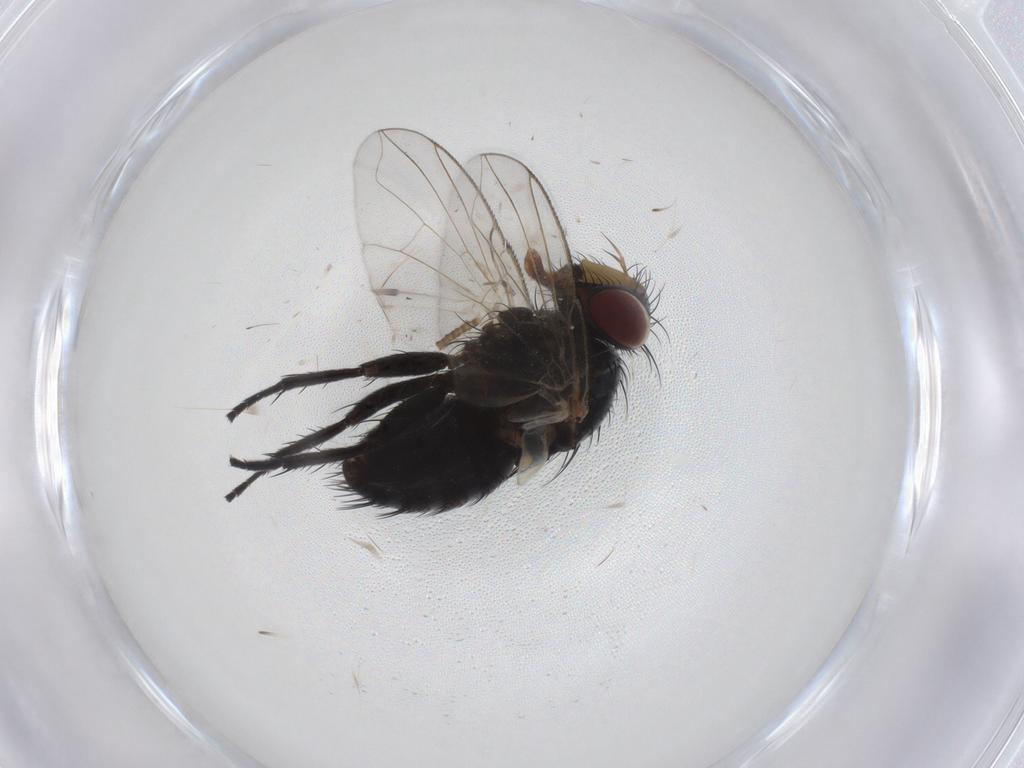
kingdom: Animalia
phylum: Arthropoda
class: Insecta
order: Diptera
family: Tachinidae
